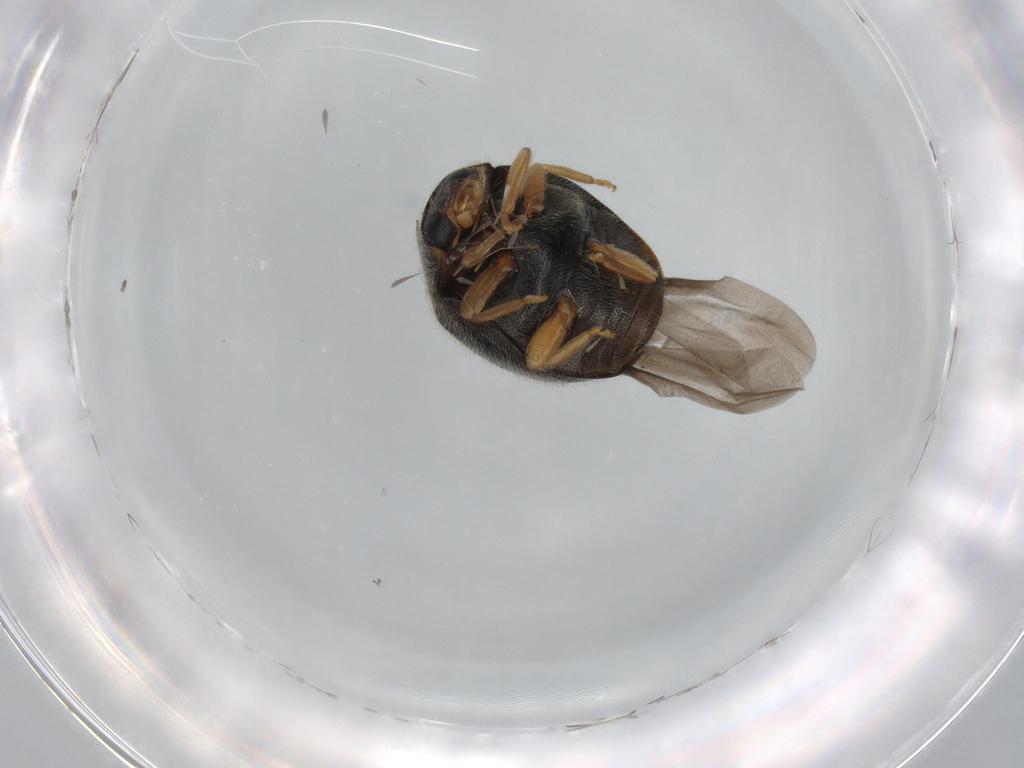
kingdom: Animalia
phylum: Arthropoda
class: Insecta
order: Coleoptera
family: Coccinellidae
